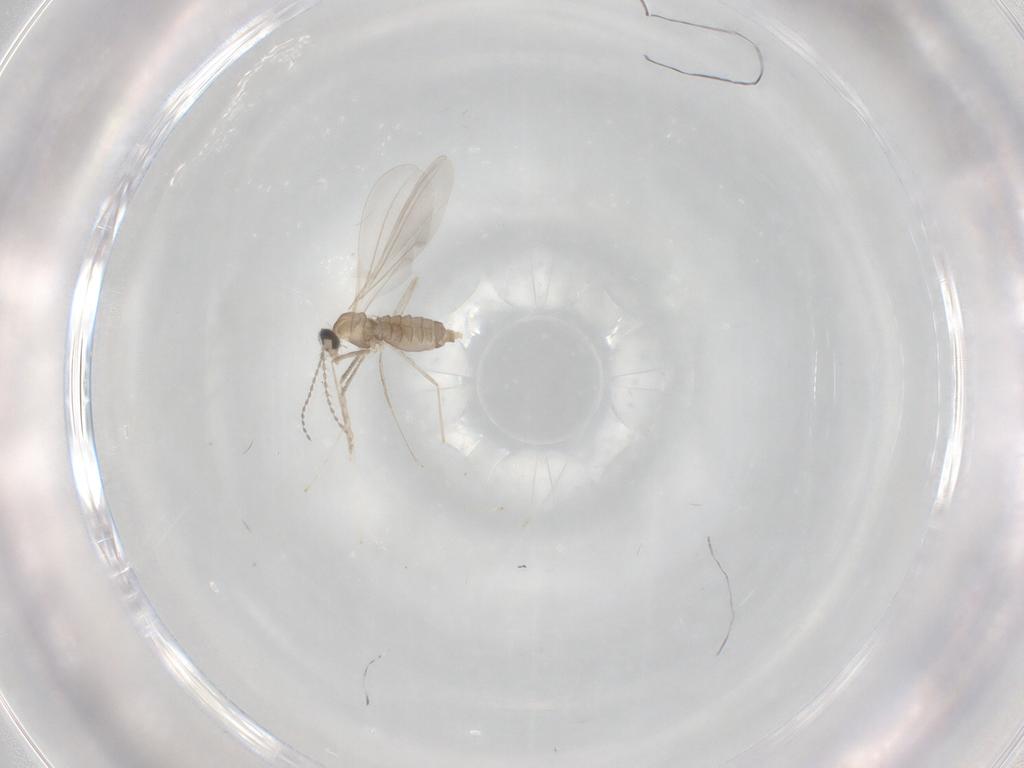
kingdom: Animalia
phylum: Arthropoda
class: Insecta
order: Diptera
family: Cecidomyiidae
